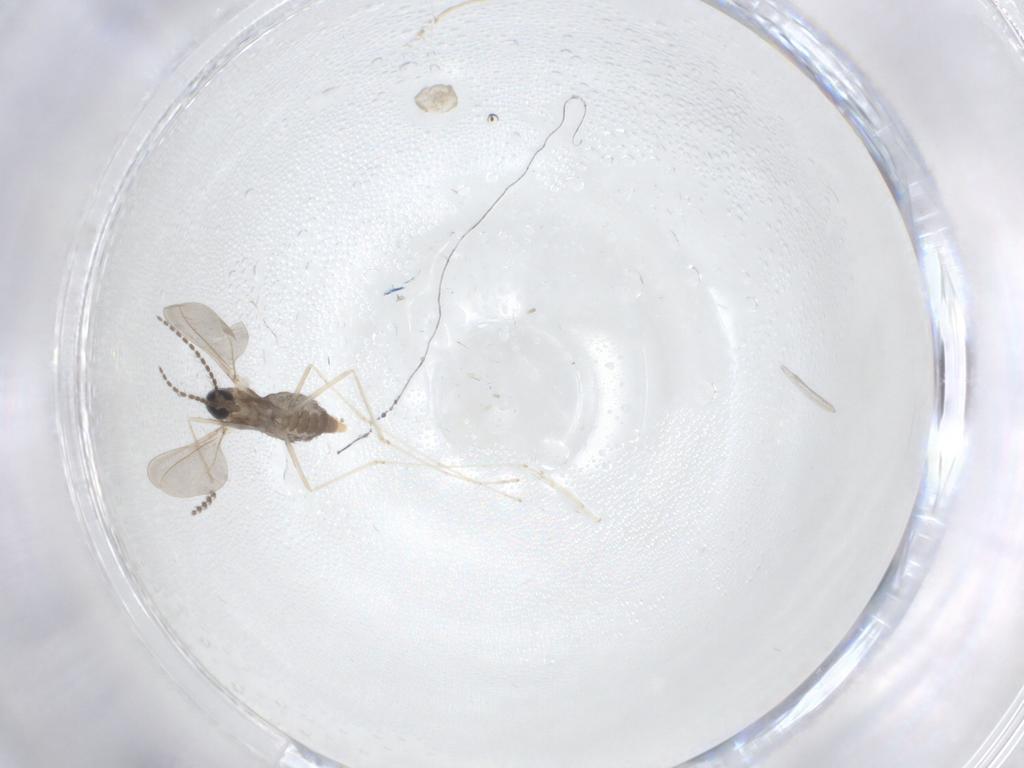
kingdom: Animalia
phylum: Arthropoda
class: Insecta
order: Diptera
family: Cecidomyiidae
